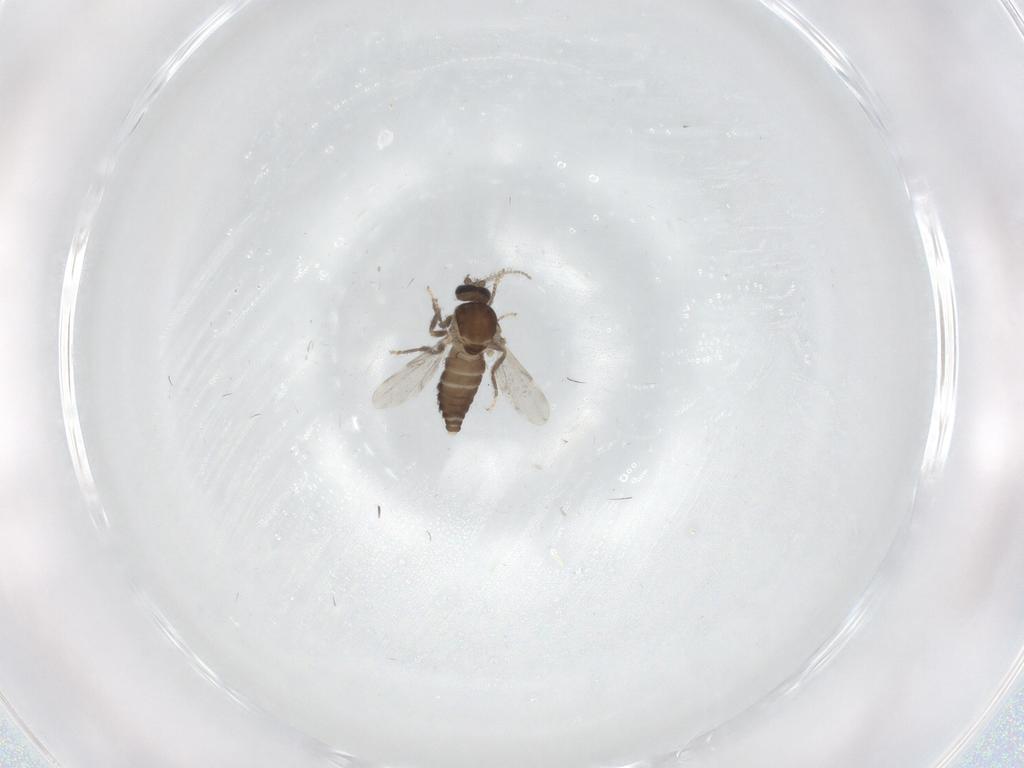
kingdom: Animalia
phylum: Arthropoda
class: Insecta
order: Diptera
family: Ceratopogonidae
